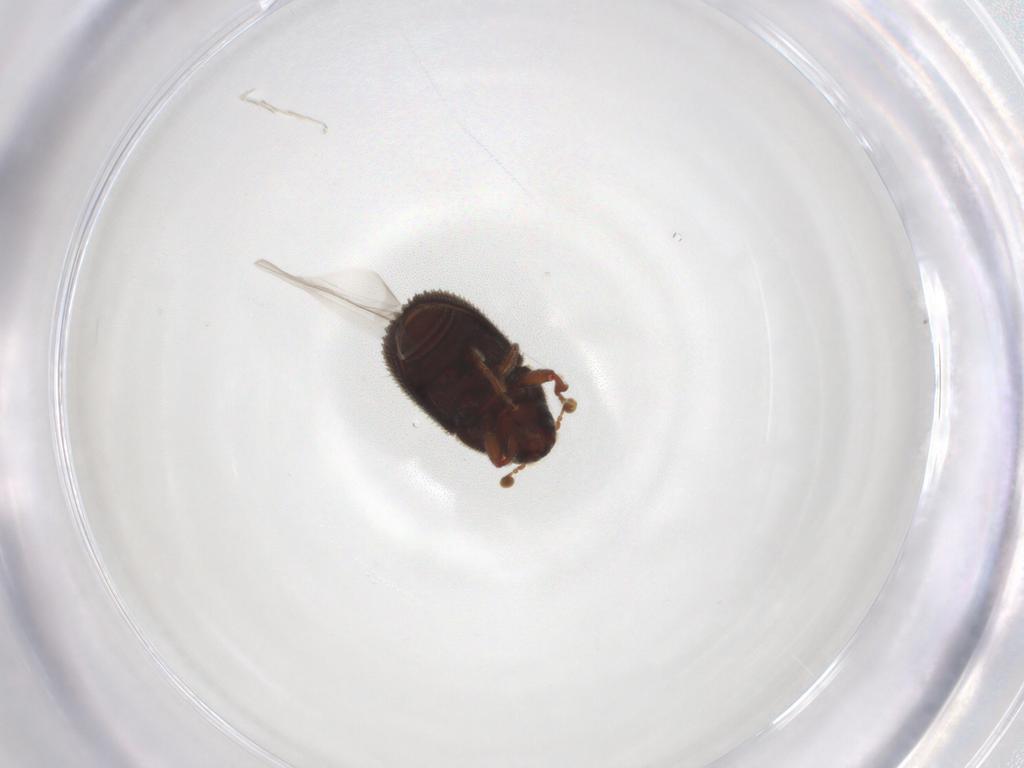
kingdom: Animalia
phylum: Arthropoda
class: Insecta
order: Coleoptera
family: Curculionidae
